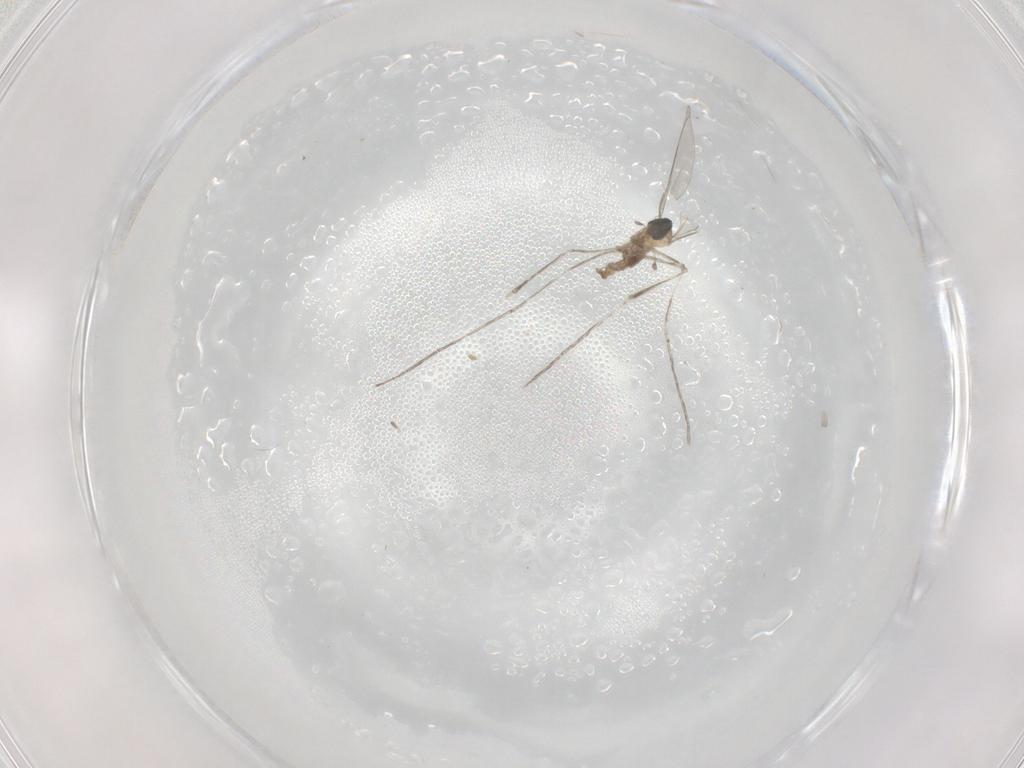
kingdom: Animalia
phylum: Arthropoda
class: Insecta
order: Diptera
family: Cecidomyiidae
